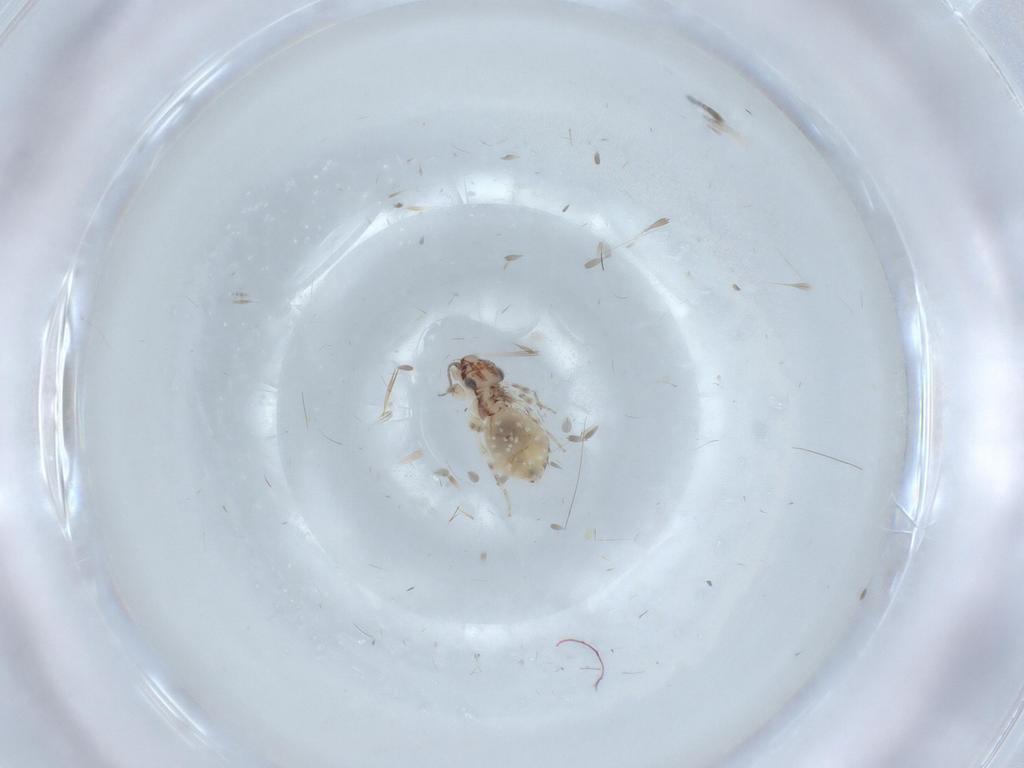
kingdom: Animalia
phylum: Arthropoda
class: Insecta
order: Psocodea
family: Lepidopsocidae
